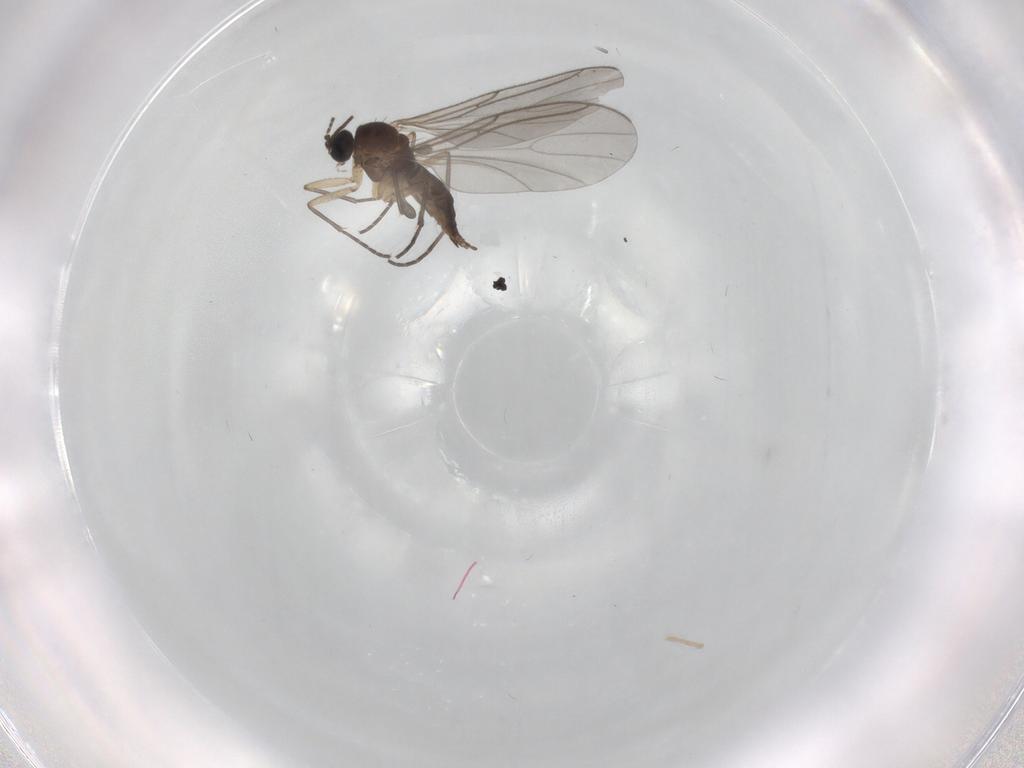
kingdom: Animalia
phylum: Arthropoda
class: Insecta
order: Diptera
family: Sciaridae
